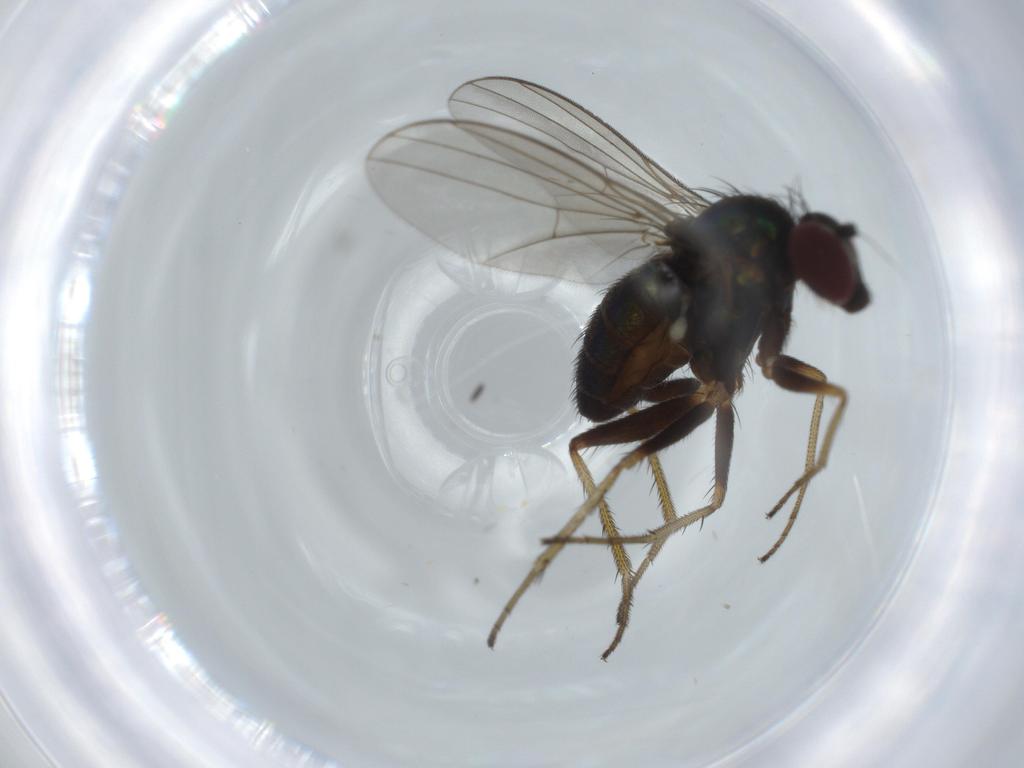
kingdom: Animalia
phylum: Arthropoda
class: Insecta
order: Diptera
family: Dolichopodidae
